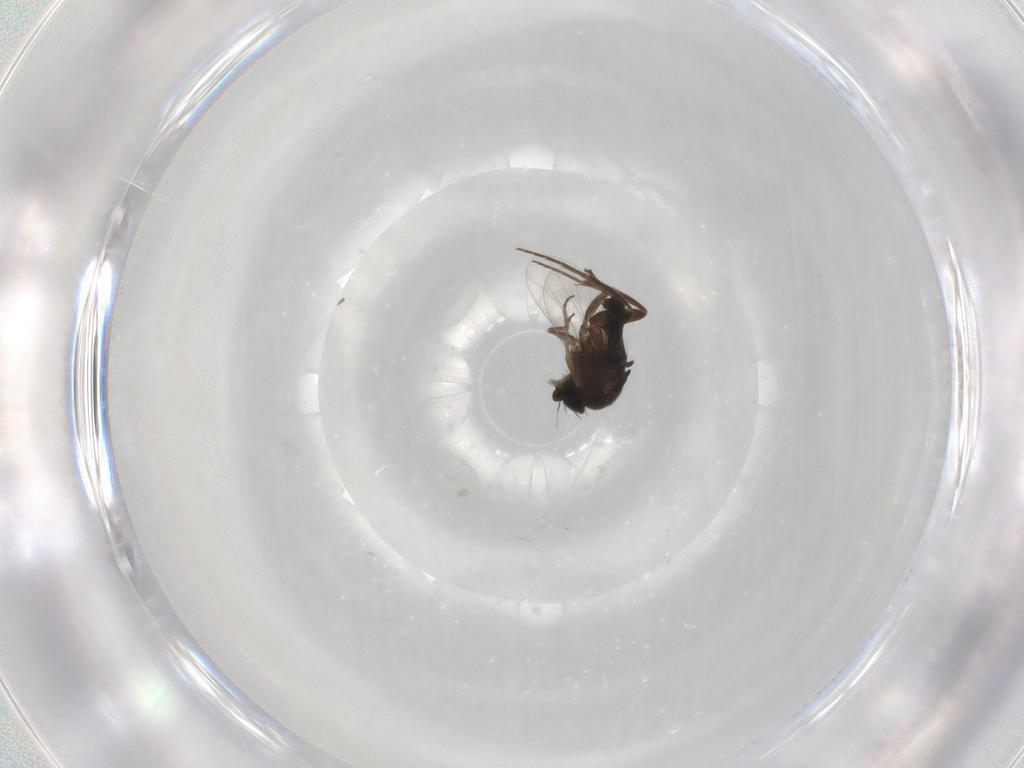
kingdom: Animalia
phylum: Arthropoda
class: Insecta
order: Diptera
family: Phoridae
